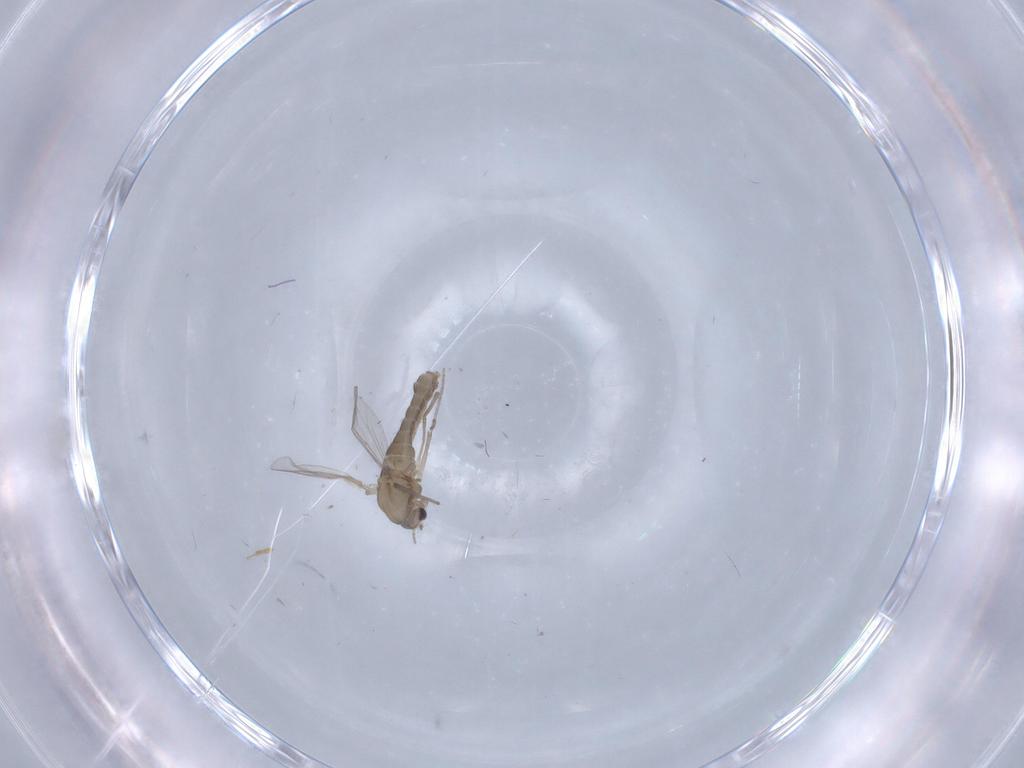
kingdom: Animalia
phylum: Arthropoda
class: Insecta
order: Diptera
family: Chironomidae
